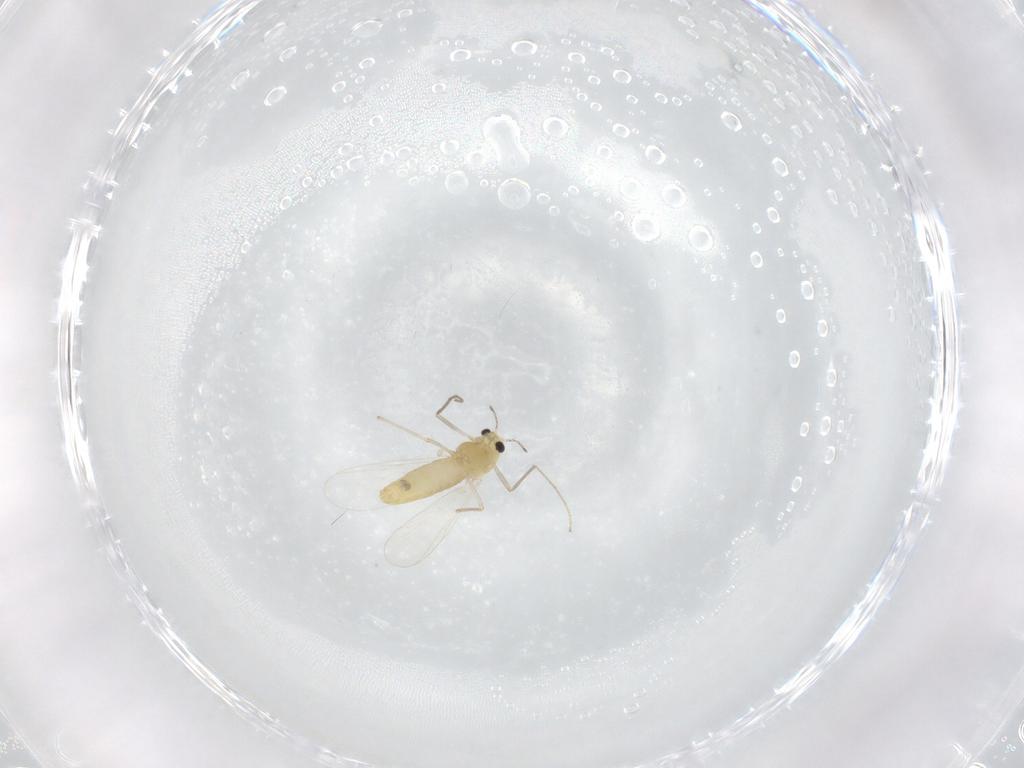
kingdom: Animalia
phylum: Arthropoda
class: Insecta
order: Diptera
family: Chironomidae
